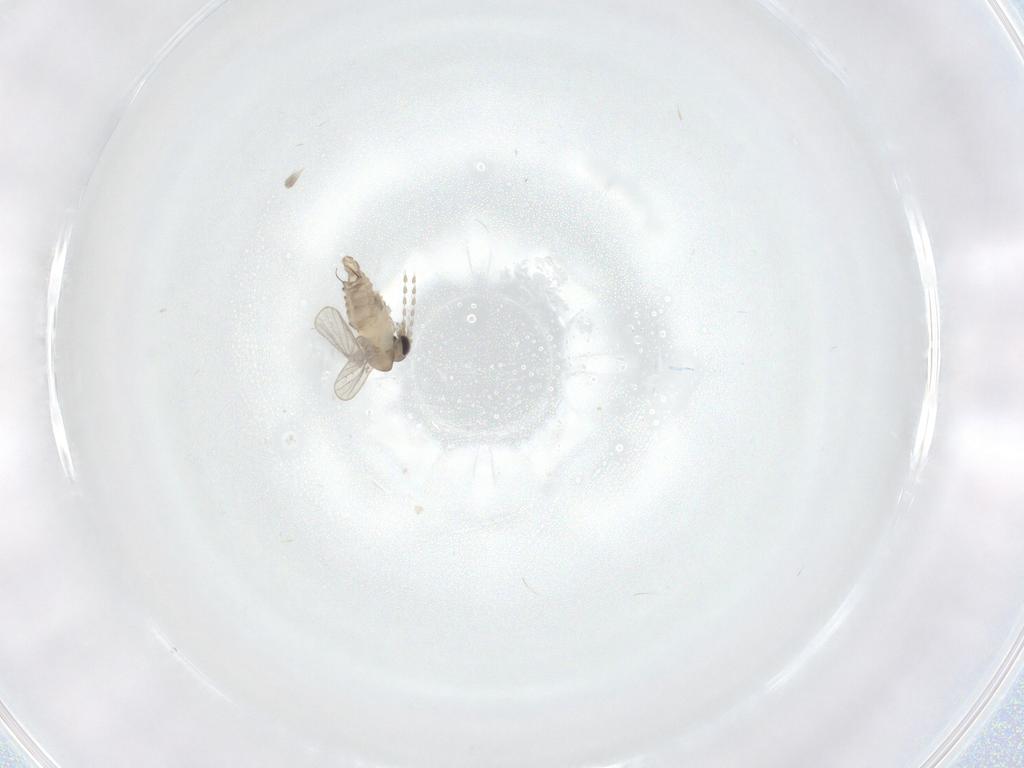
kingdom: Animalia
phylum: Arthropoda
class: Insecta
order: Diptera
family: Psychodidae
